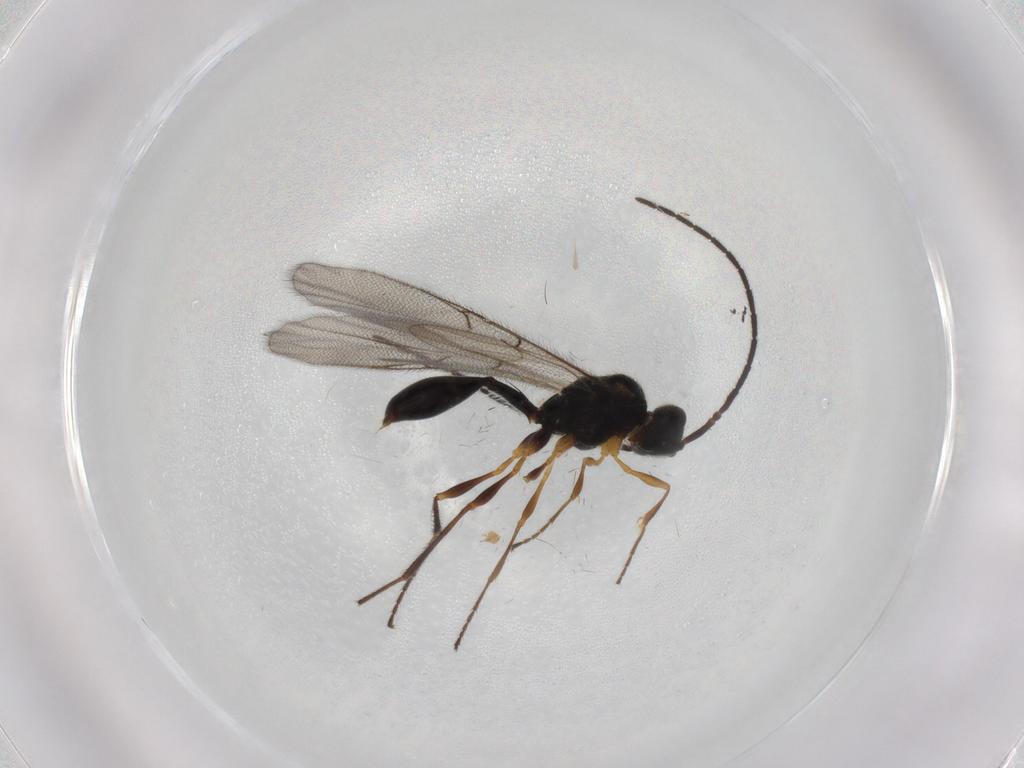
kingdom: Animalia
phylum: Arthropoda
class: Insecta
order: Hymenoptera
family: Diapriidae
